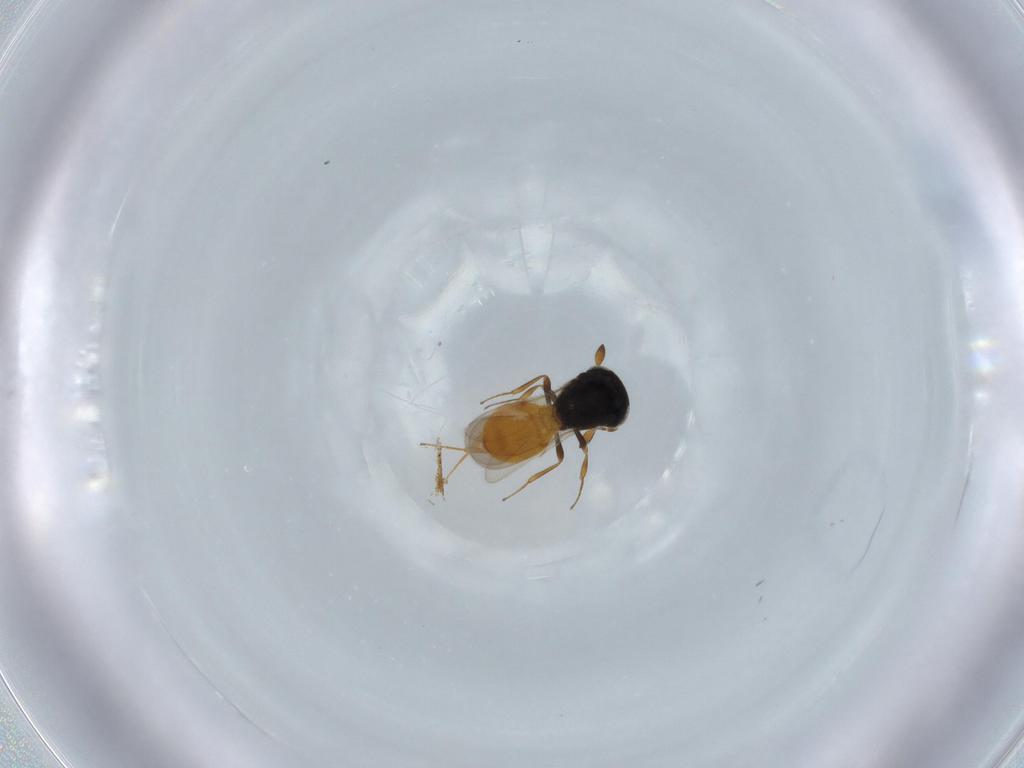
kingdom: Animalia
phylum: Arthropoda
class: Insecta
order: Hymenoptera
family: Scelionidae
